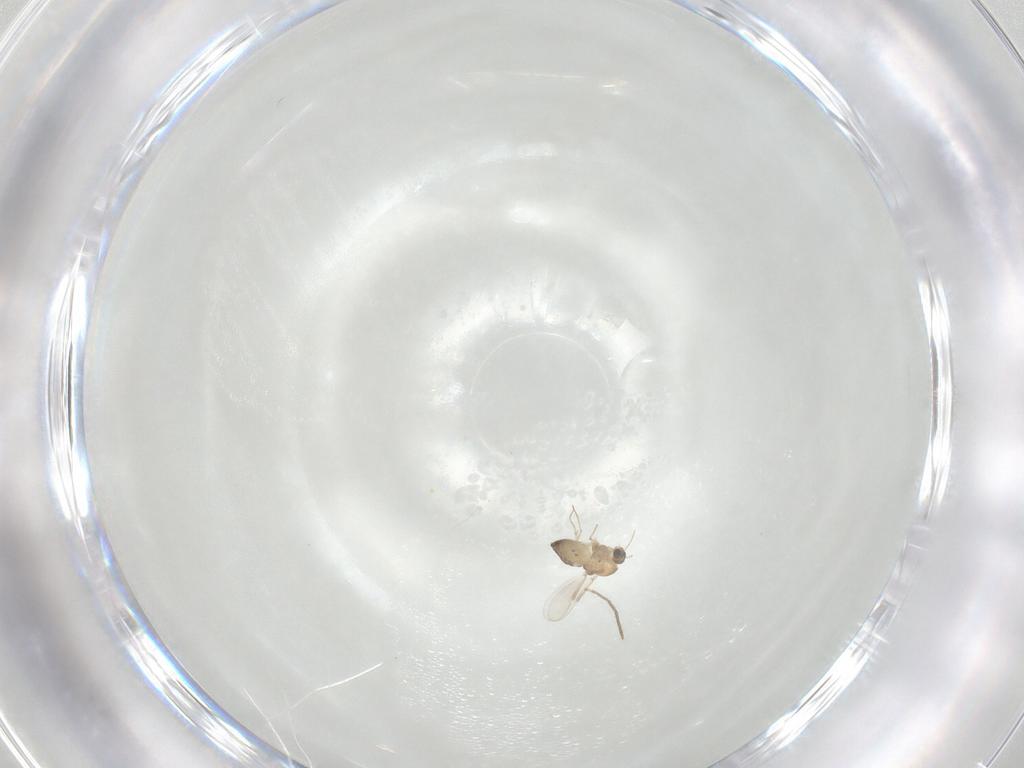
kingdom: Animalia
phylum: Arthropoda
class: Insecta
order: Diptera
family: Chironomidae
